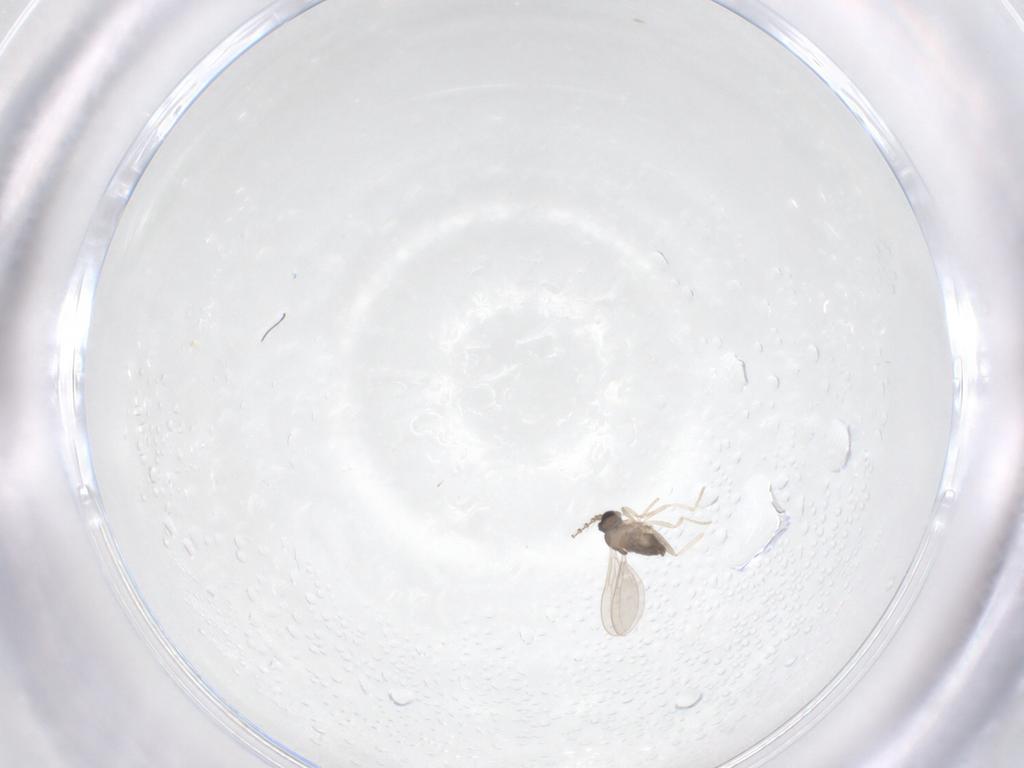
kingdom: Animalia
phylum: Arthropoda
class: Insecta
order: Diptera
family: Cecidomyiidae
